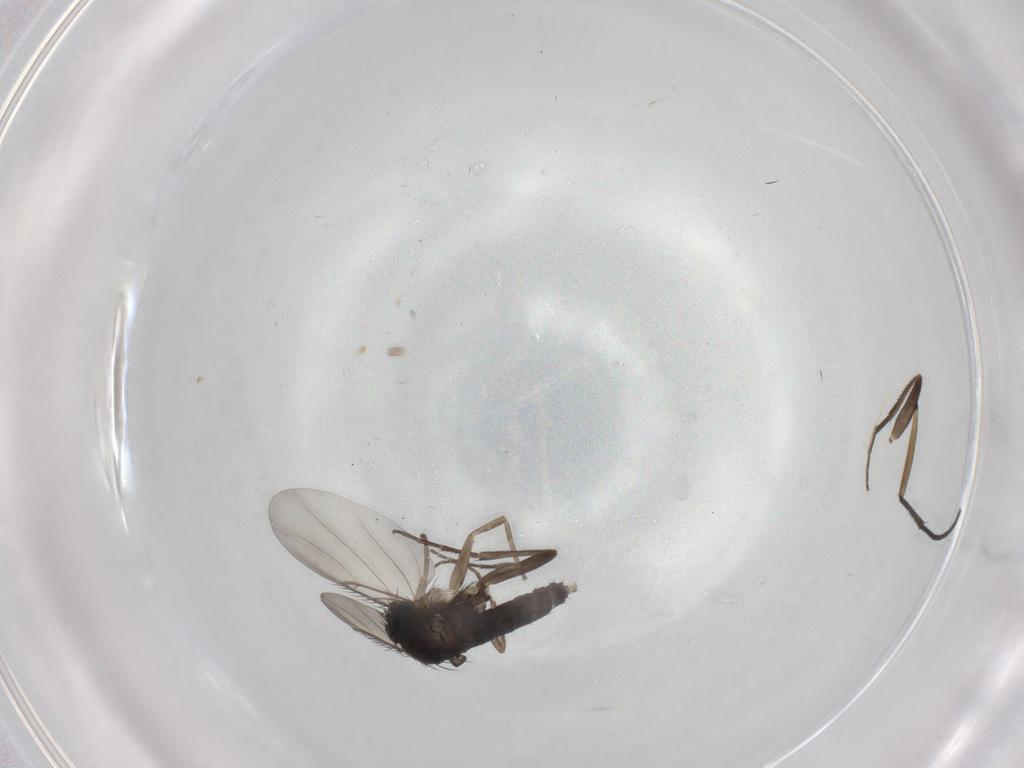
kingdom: Animalia
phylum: Arthropoda
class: Insecta
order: Diptera
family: Phoridae
